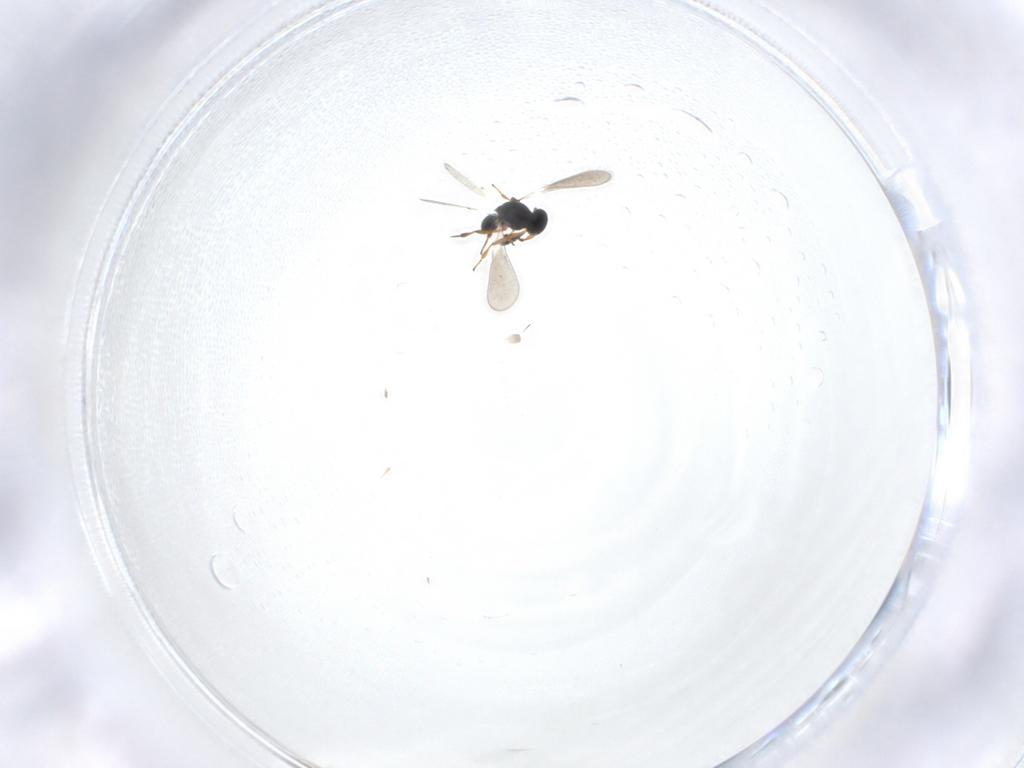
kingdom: Animalia
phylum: Arthropoda
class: Insecta
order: Hymenoptera
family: Platygastridae
